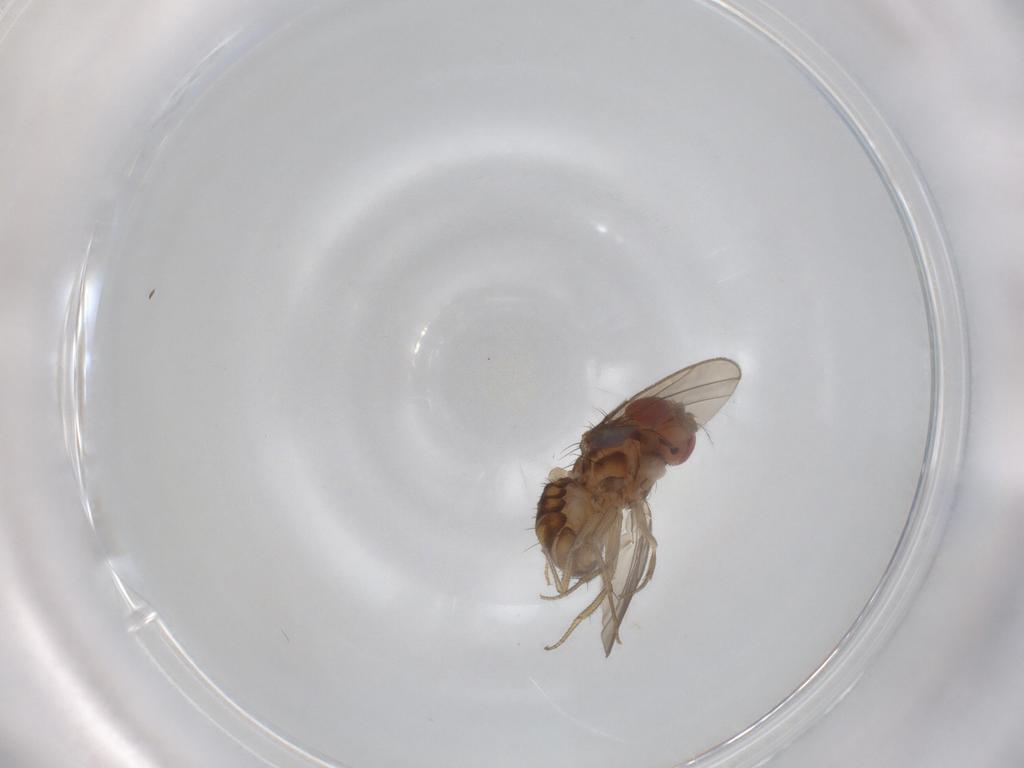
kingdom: Animalia
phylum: Arthropoda
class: Insecta
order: Diptera
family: Drosophilidae
